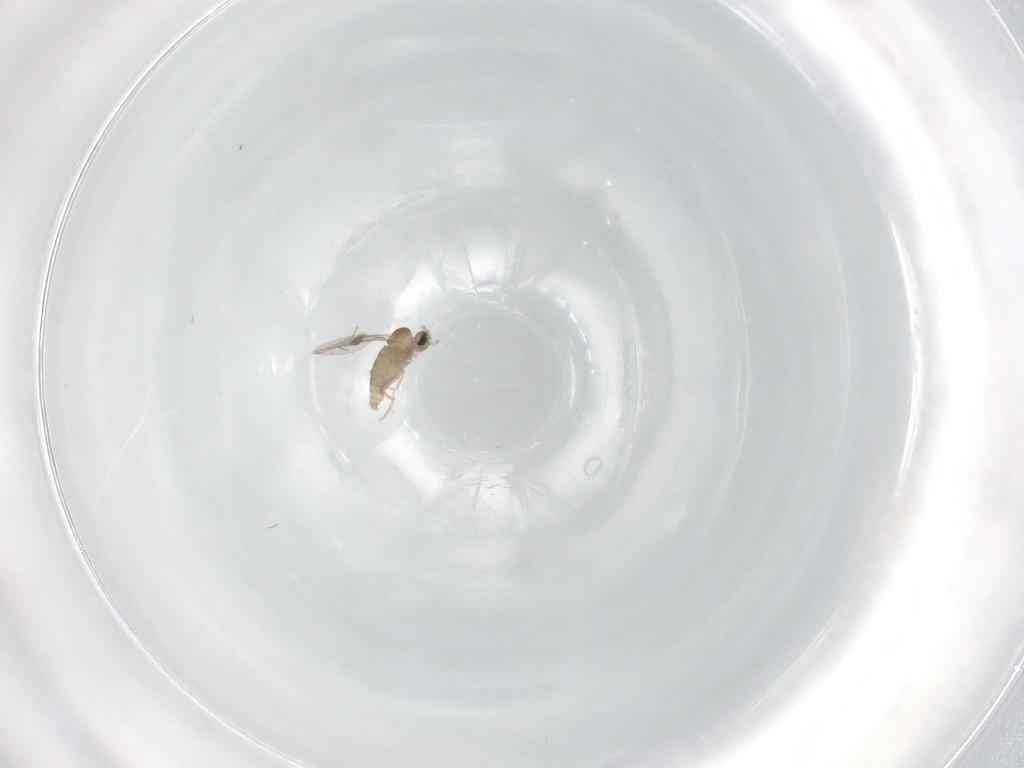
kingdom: Animalia
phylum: Arthropoda
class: Insecta
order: Diptera
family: Cecidomyiidae
